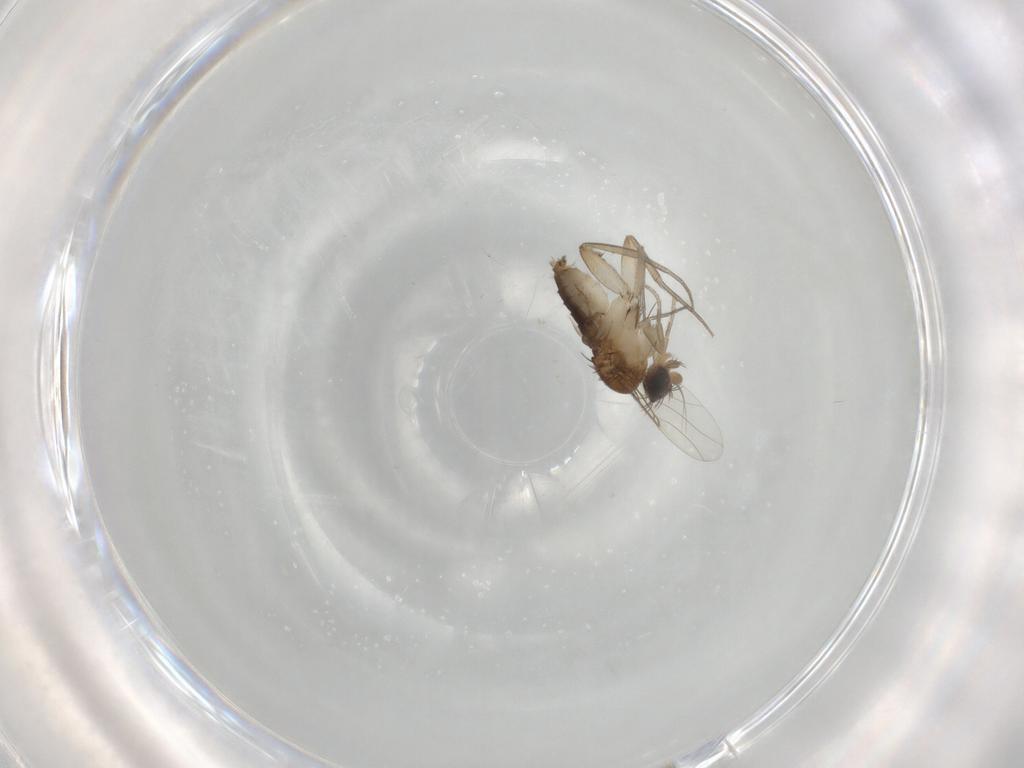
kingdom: Animalia
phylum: Arthropoda
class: Insecta
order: Diptera
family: Phoridae
